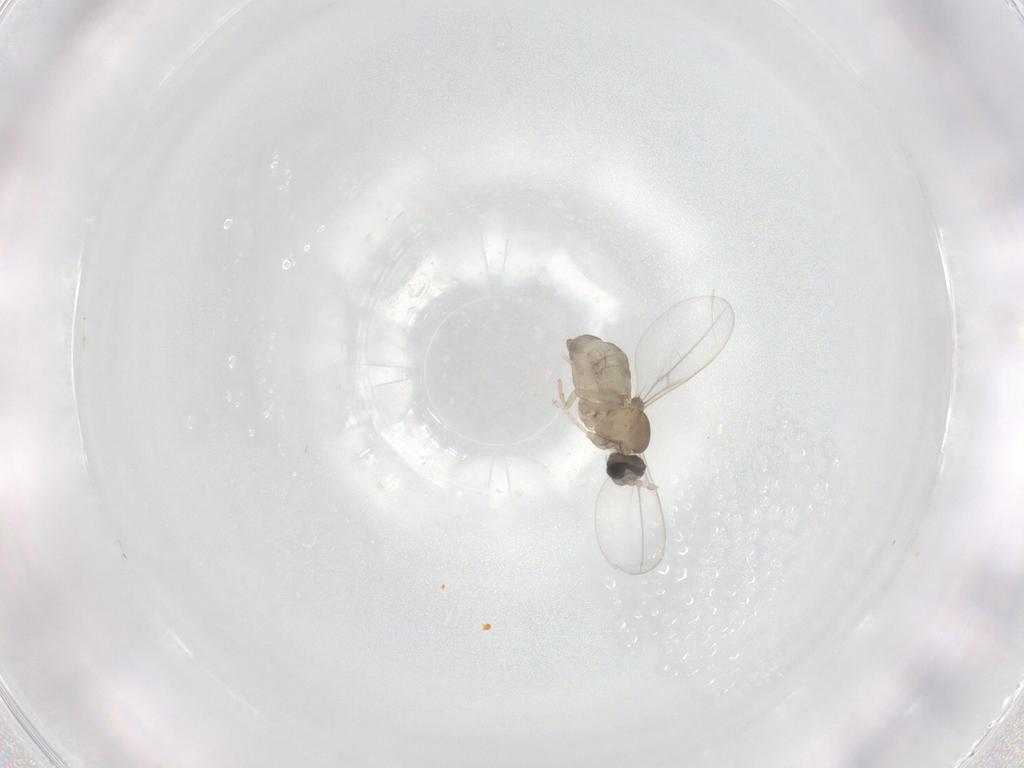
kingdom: Animalia
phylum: Arthropoda
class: Insecta
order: Diptera
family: Cecidomyiidae
